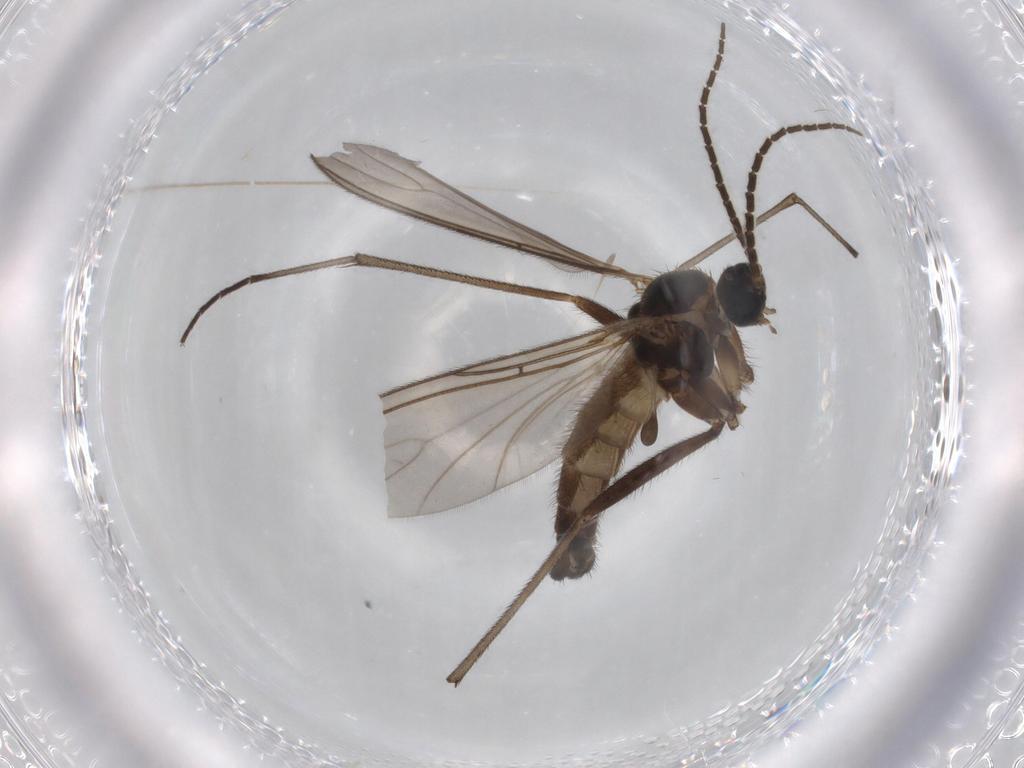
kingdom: Animalia
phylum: Arthropoda
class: Insecta
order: Diptera
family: Sciaridae
